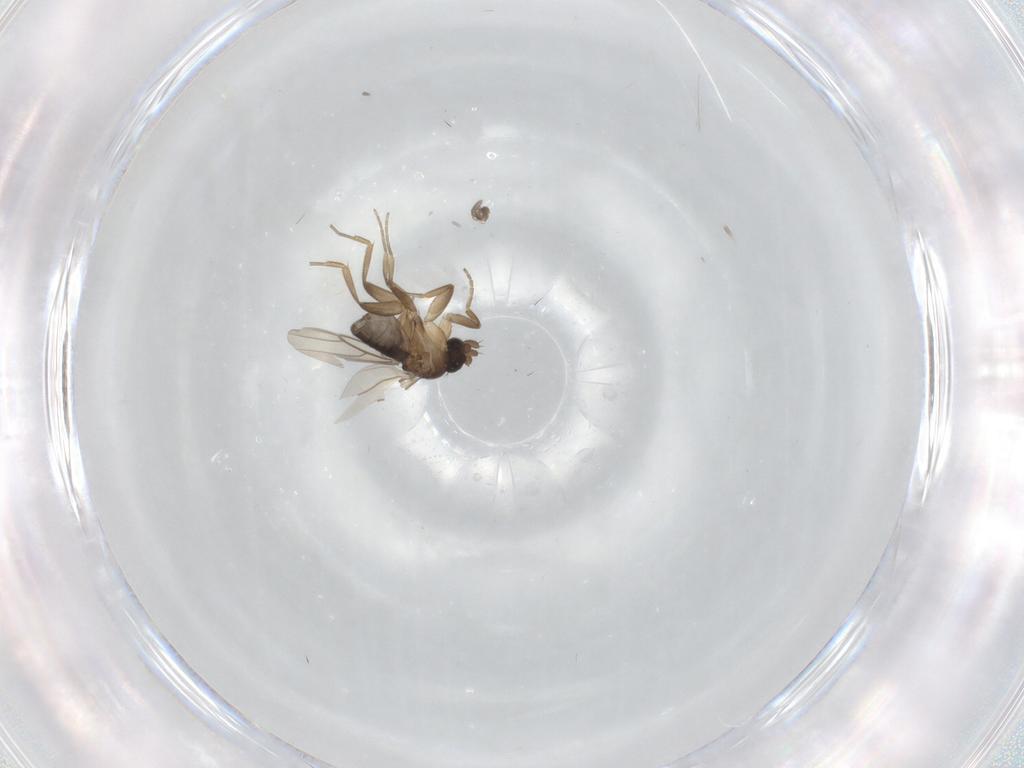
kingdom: Animalia
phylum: Arthropoda
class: Insecta
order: Diptera
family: Phoridae
